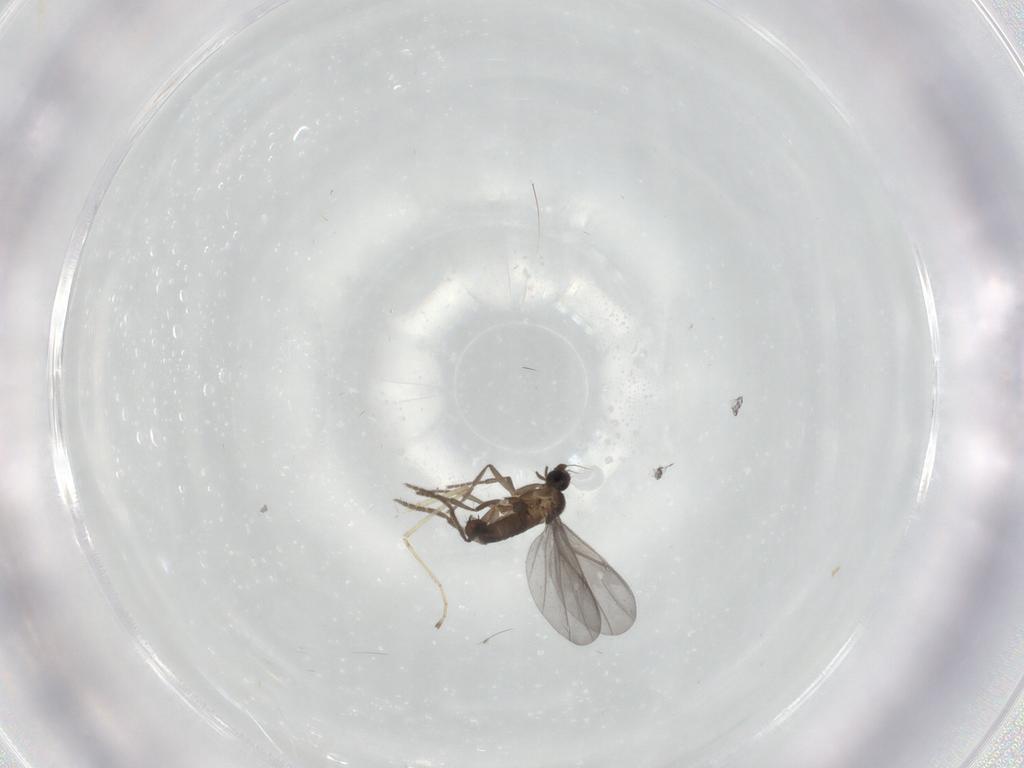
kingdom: Animalia
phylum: Arthropoda
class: Insecta
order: Diptera
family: Phoridae
